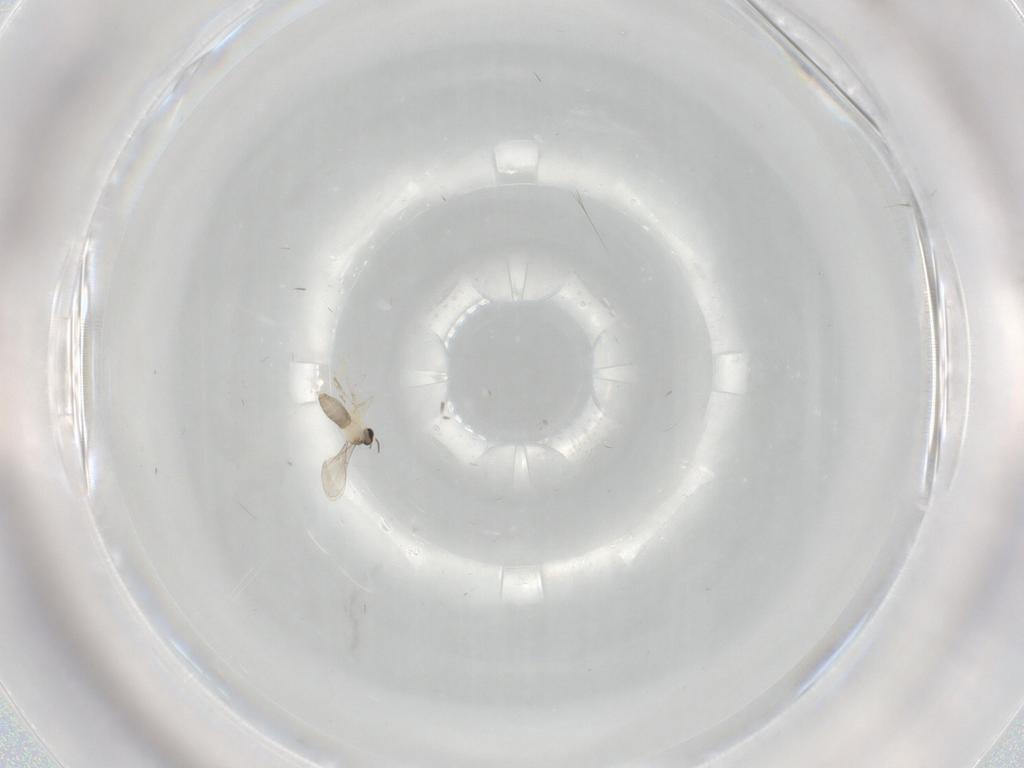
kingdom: Animalia
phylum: Arthropoda
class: Insecta
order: Diptera
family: Cecidomyiidae
